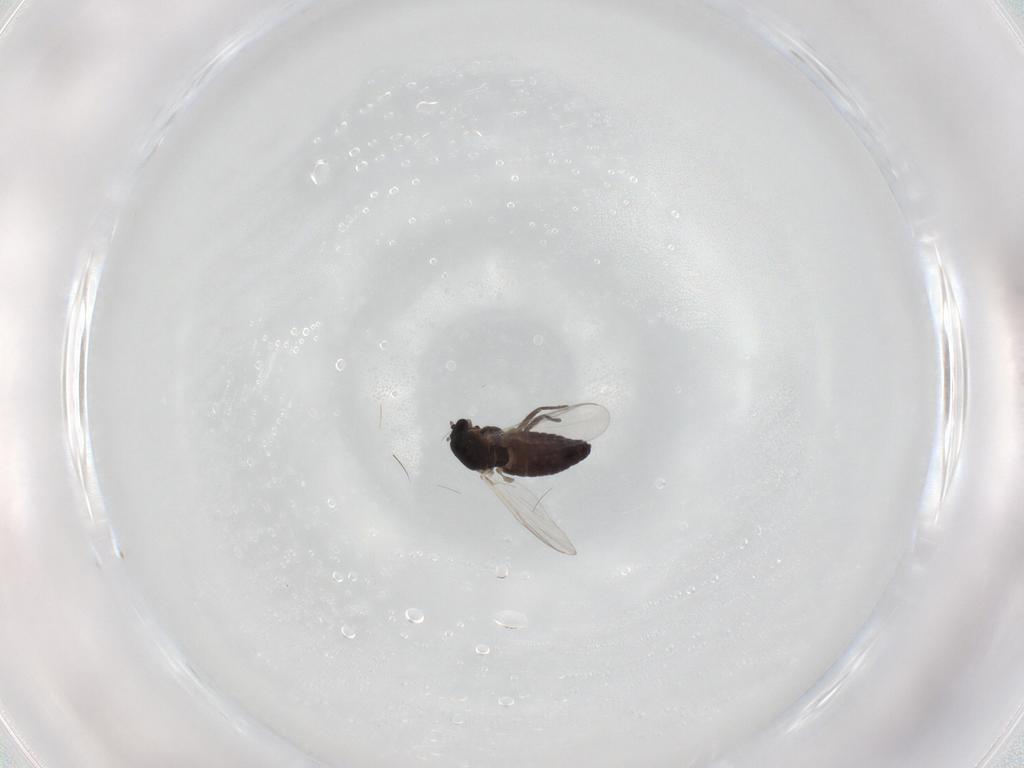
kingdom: Animalia
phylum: Arthropoda
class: Insecta
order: Diptera
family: Chironomidae
